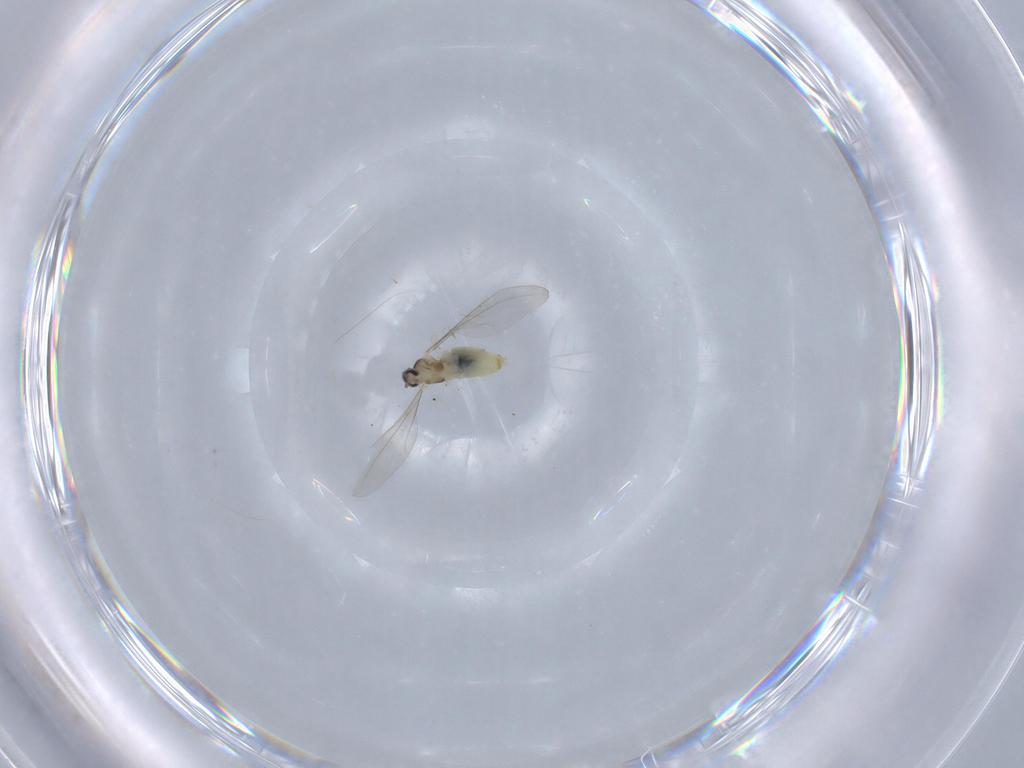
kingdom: Animalia
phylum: Arthropoda
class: Insecta
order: Diptera
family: Cecidomyiidae
